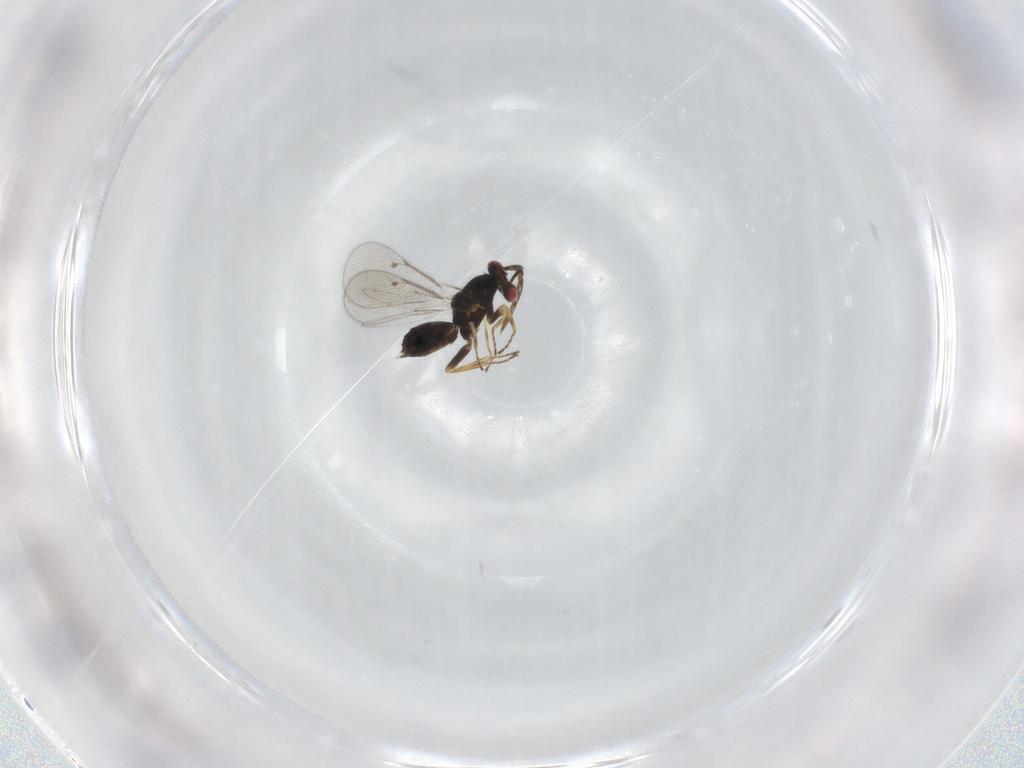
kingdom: Animalia
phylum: Arthropoda
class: Insecta
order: Hymenoptera
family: Eulophidae
